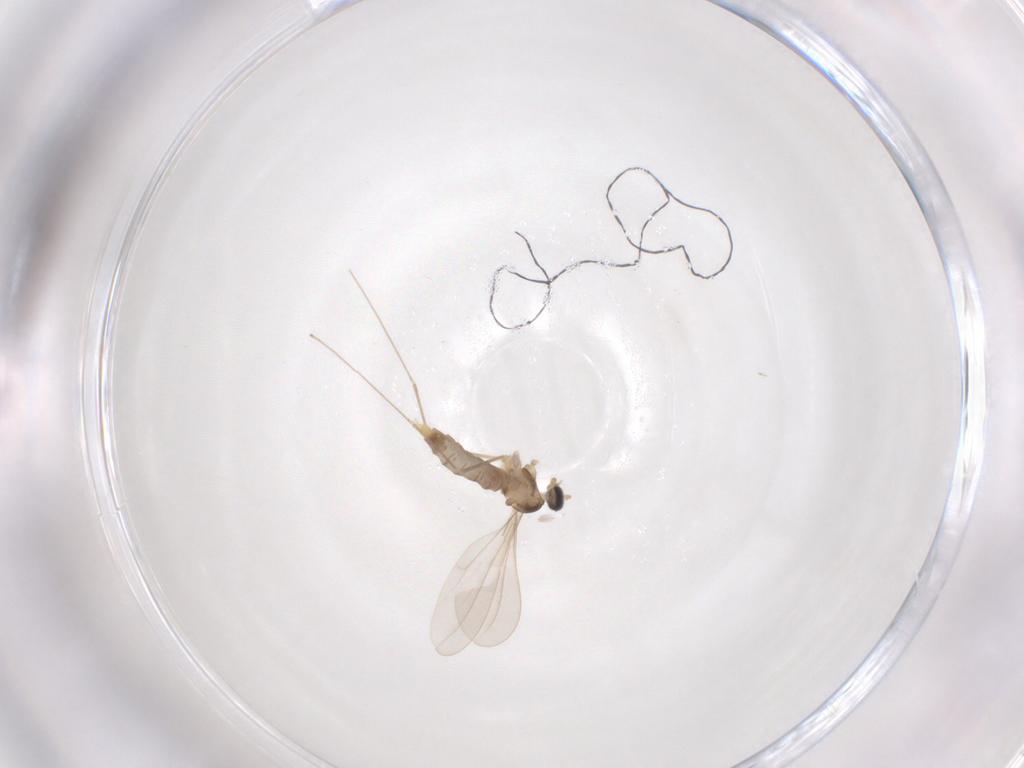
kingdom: Animalia
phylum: Arthropoda
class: Insecta
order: Diptera
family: Cecidomyiidae
